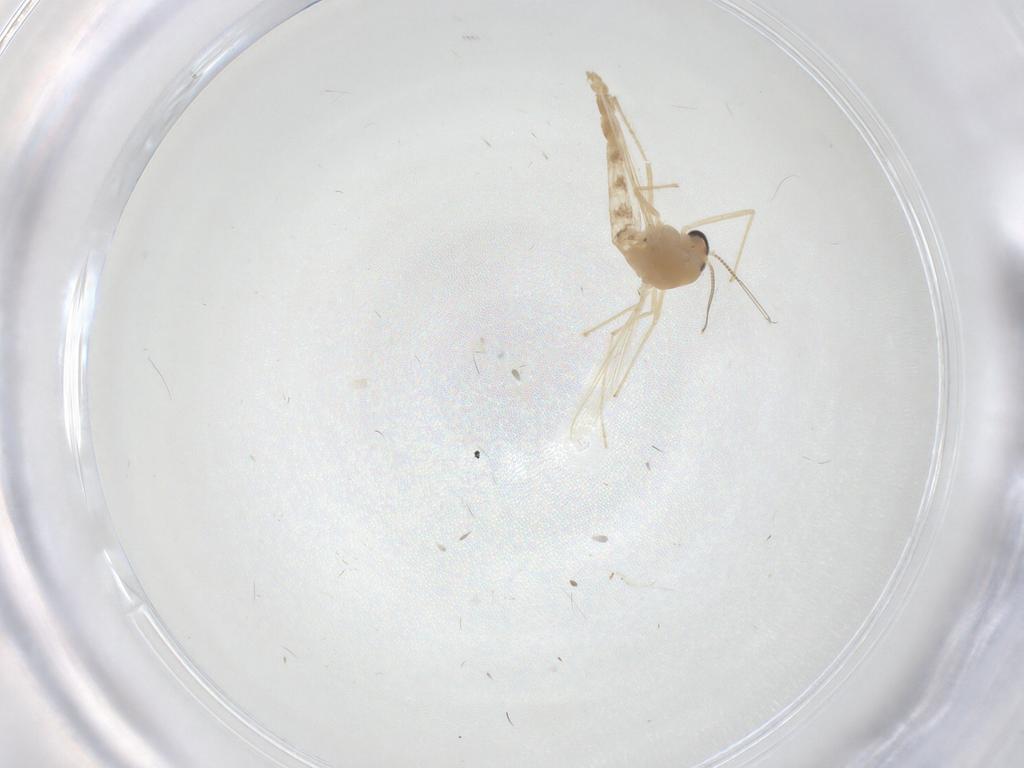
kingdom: Animalia
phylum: Arthropoda
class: Insecta
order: Diptera
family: Chironomidae
